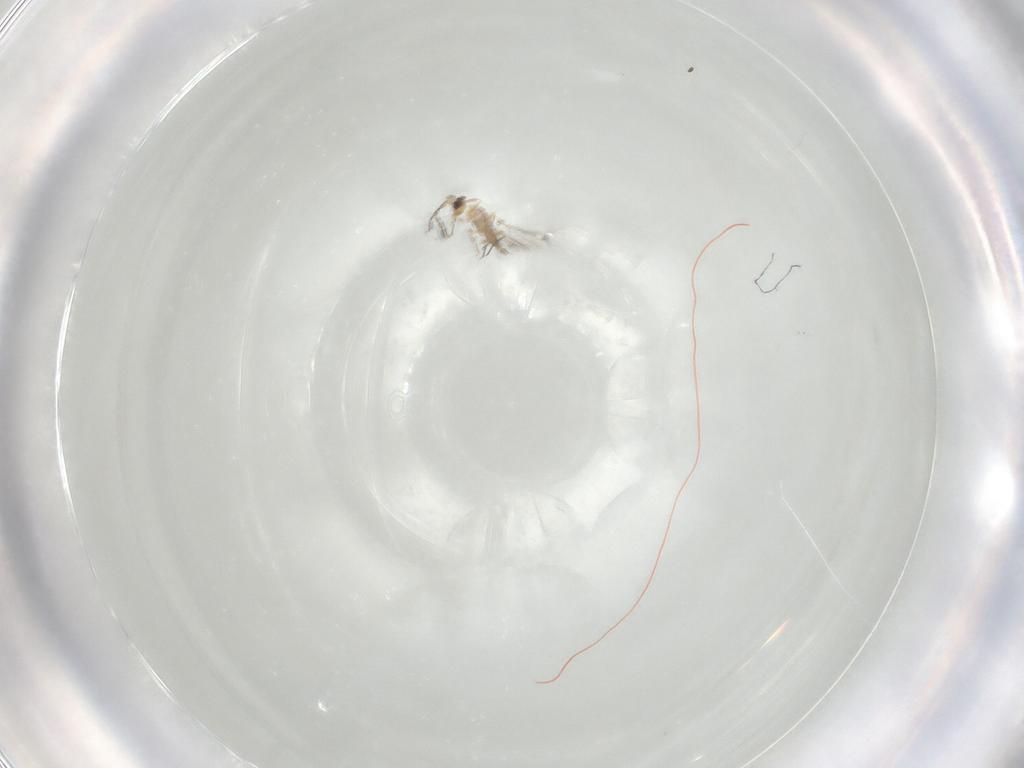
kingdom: Animalia
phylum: Arthropoda
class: Insecta
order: Hymenoptera
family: Mymaridae
